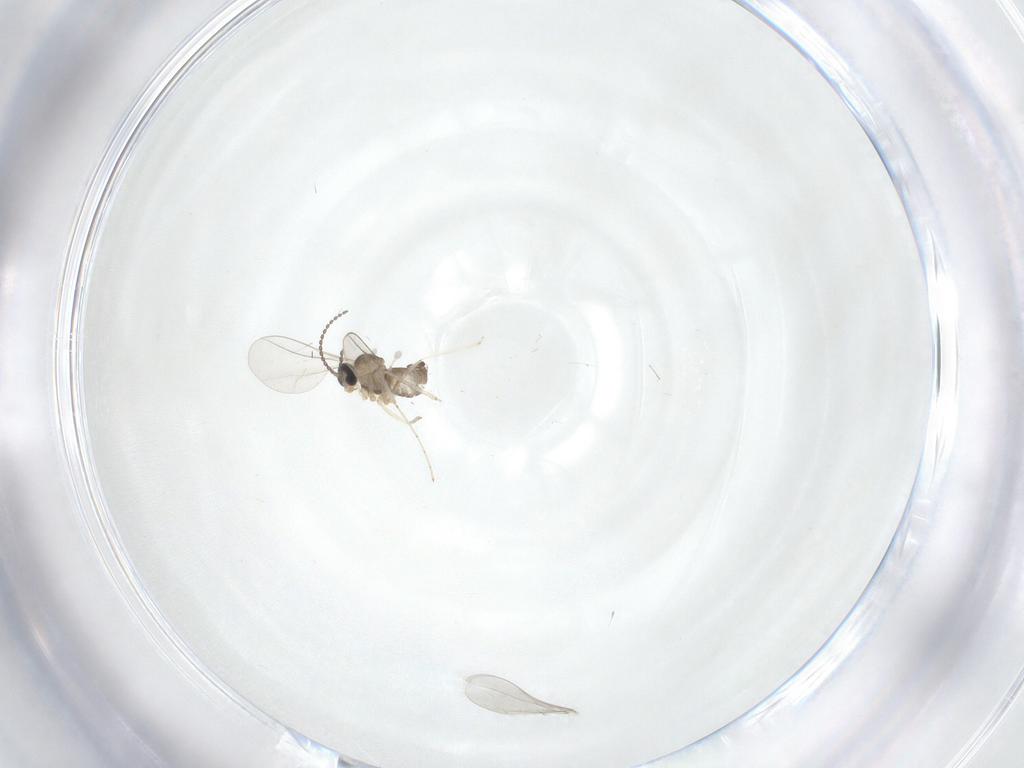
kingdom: Animalia
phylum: Arthropoda
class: Insecta
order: Diptera
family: Cecidomyiidae
